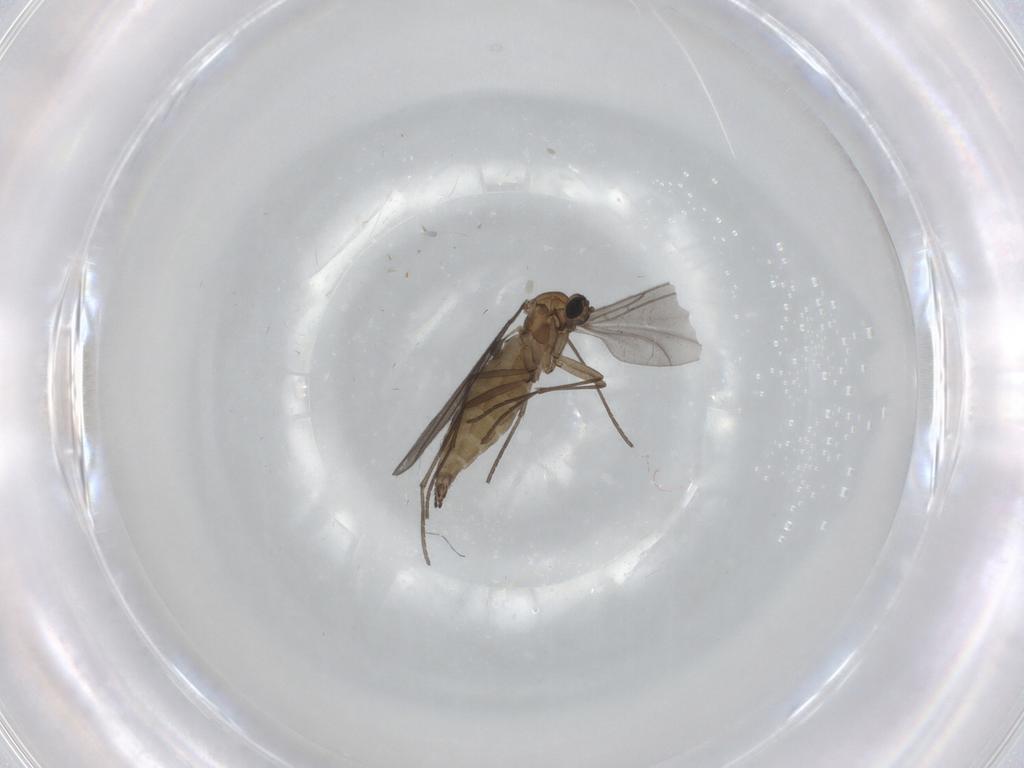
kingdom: Animalia
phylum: Arthropoda
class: Insecta
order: Diptera
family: Sciaridae
